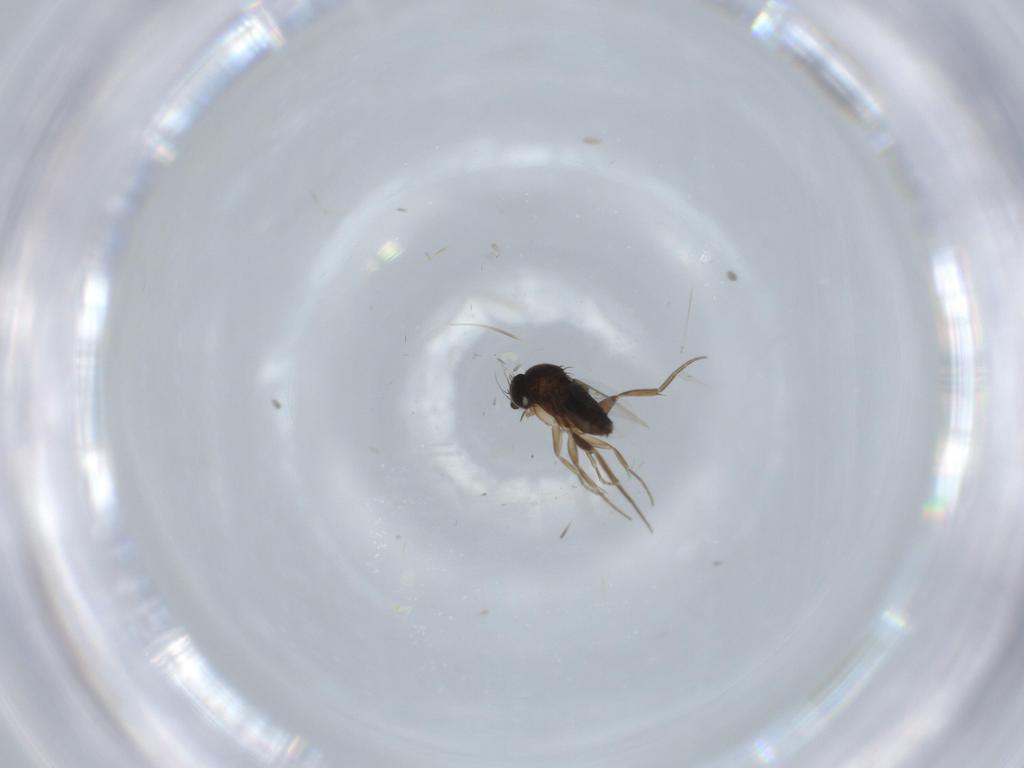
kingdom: Animalia
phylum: Arthropoda
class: Insecta
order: Diptera
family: Phoridae
